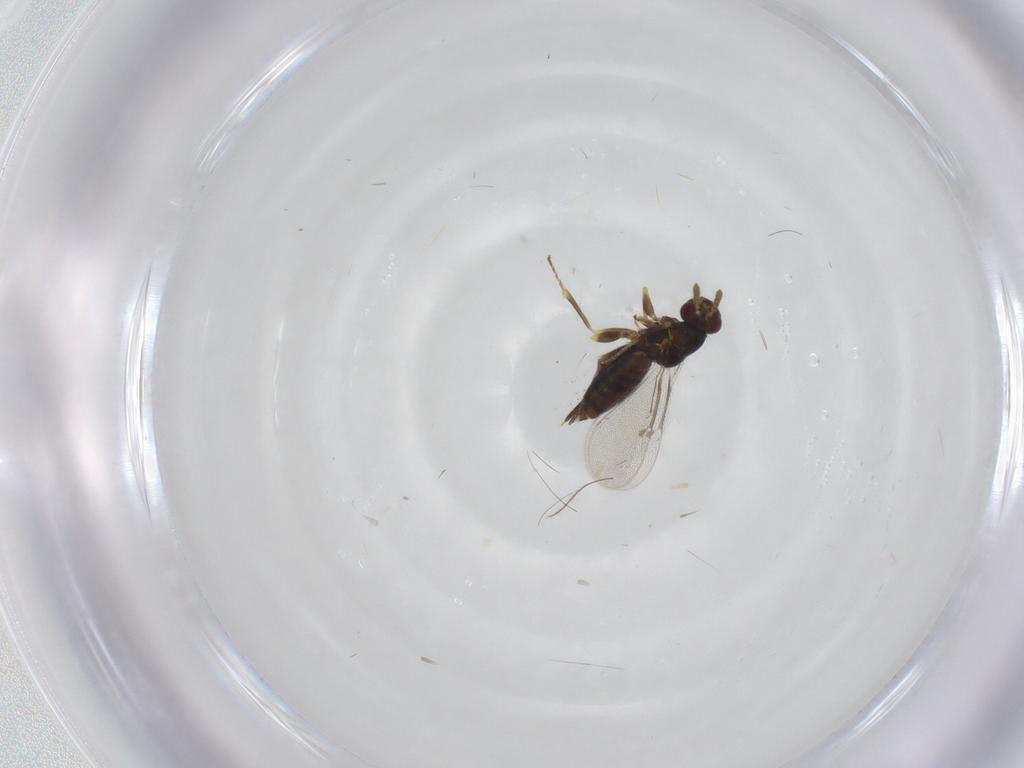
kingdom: Animalia
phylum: Arthropoda
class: Insecta
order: Hymenoptera
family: Eulophidae
